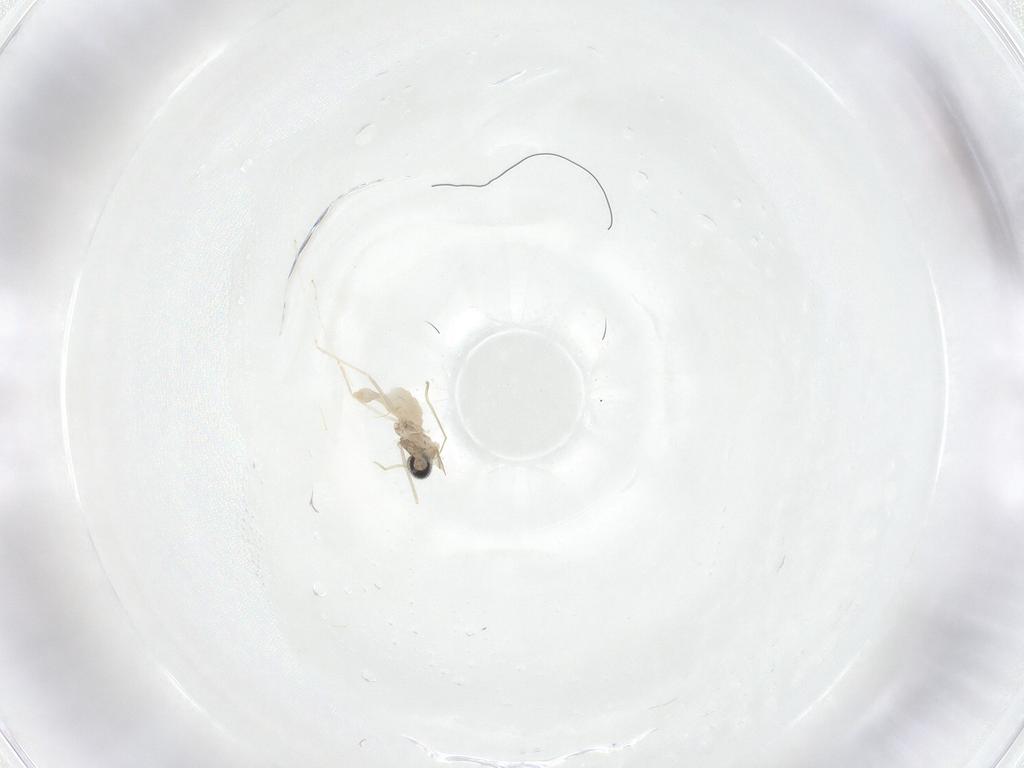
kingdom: Animalia
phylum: Arthropoda
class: Insecta
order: Diptera
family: Cecidomyiidae
